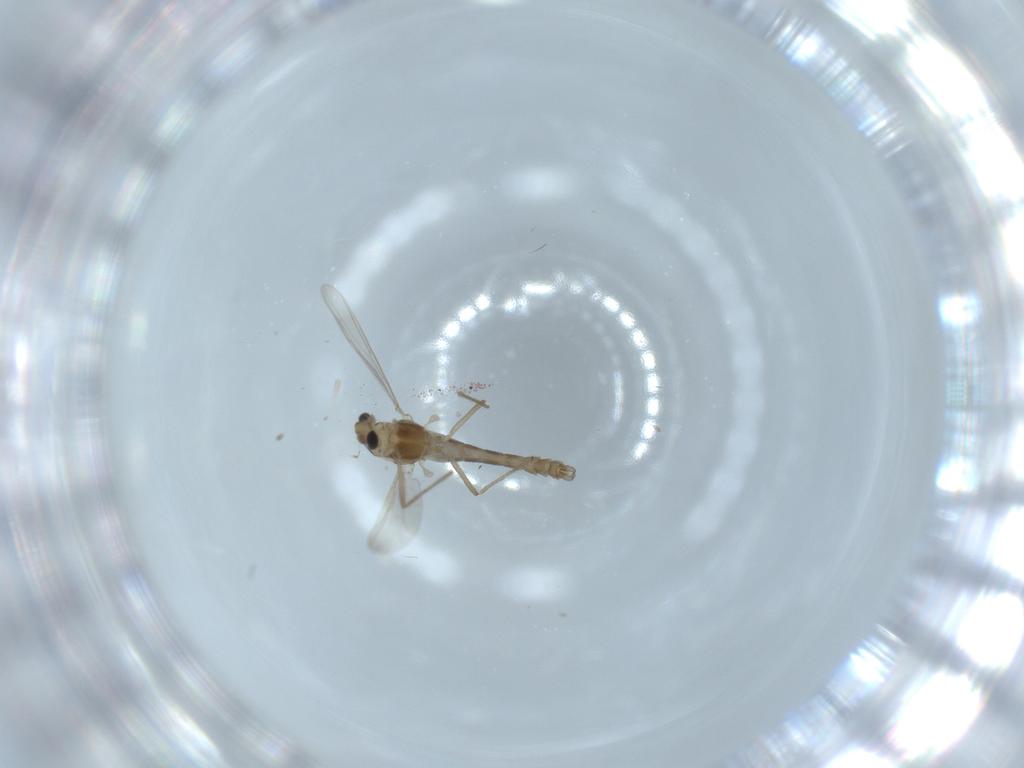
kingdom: Animalia
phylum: Arthropoda
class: Insecta
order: Diptera
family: Chironomidae
